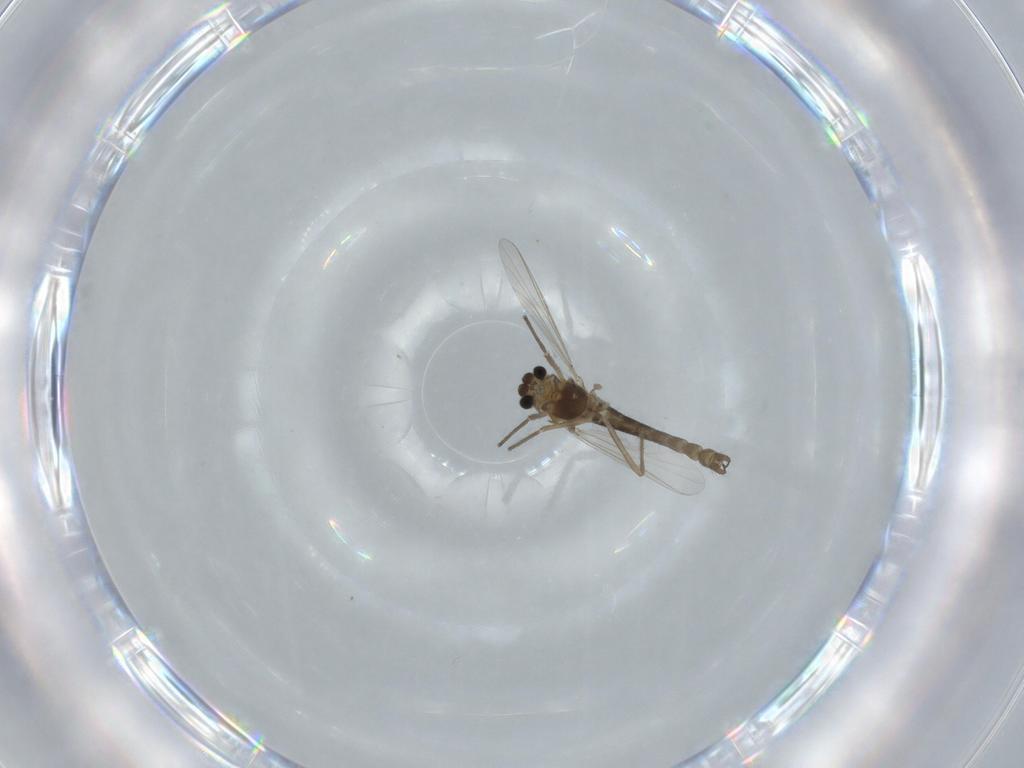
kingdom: Animalia
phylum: Arthropoda
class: Insecta
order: Diptera
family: Chironomidae
